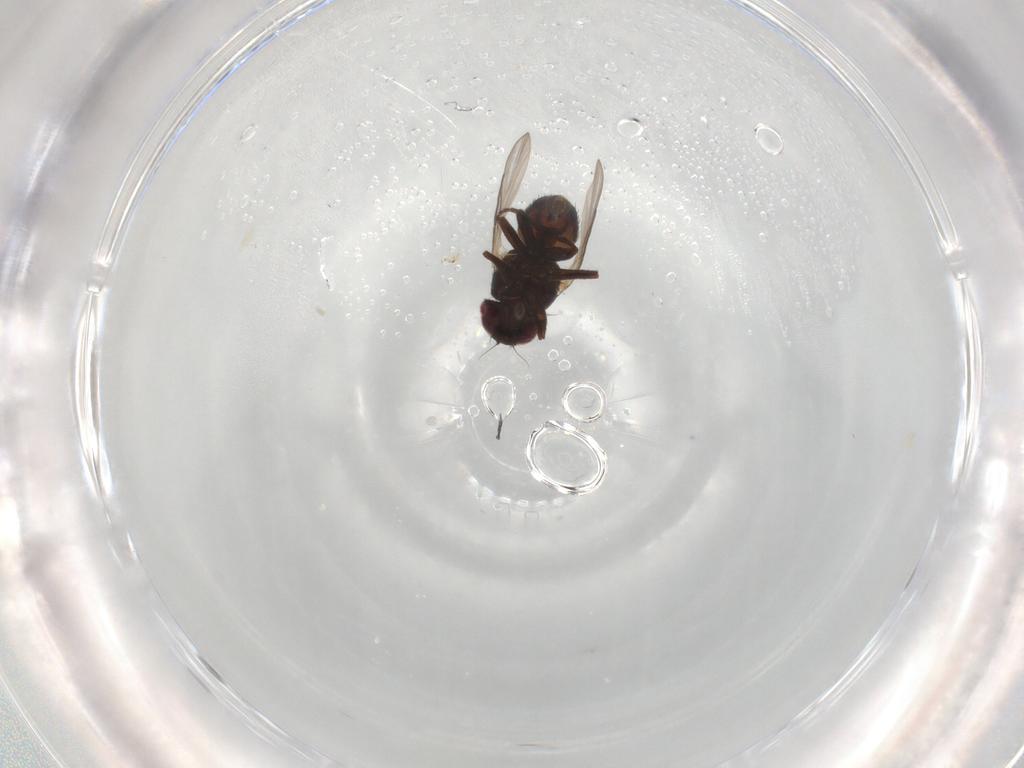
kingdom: Animalia
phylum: Arthropoda
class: Insecta
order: Diptera
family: Agromyzidae
